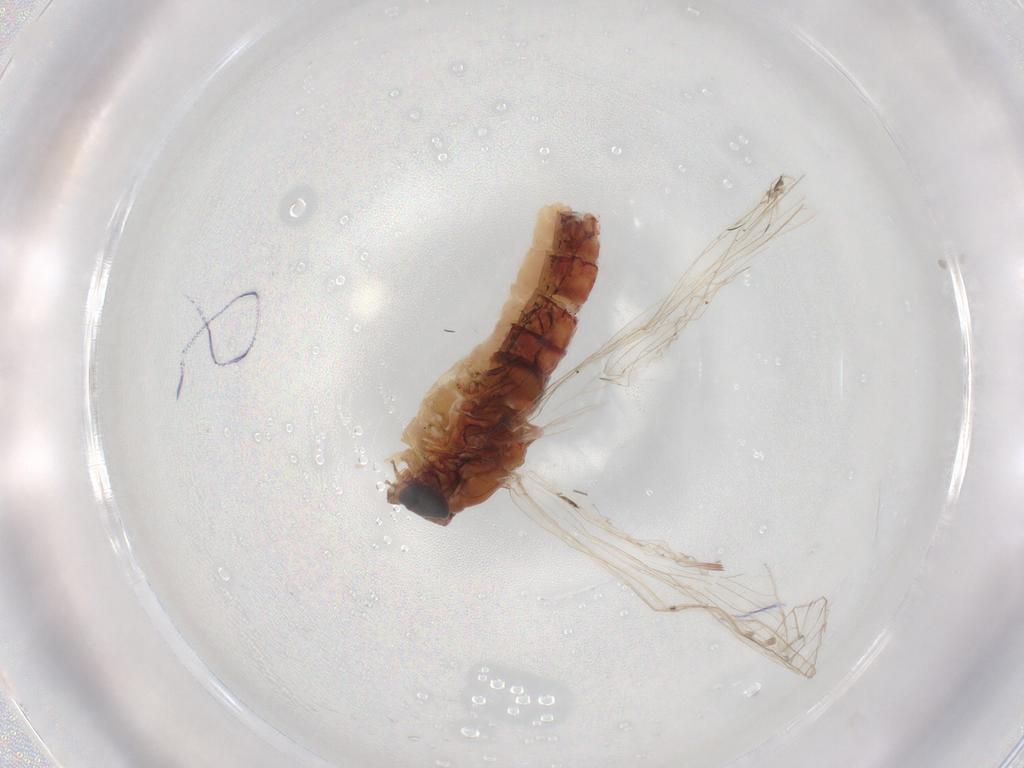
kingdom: Animalia
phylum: Arthropoda
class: Insecta
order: Ephemeroptera
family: Baetidae
